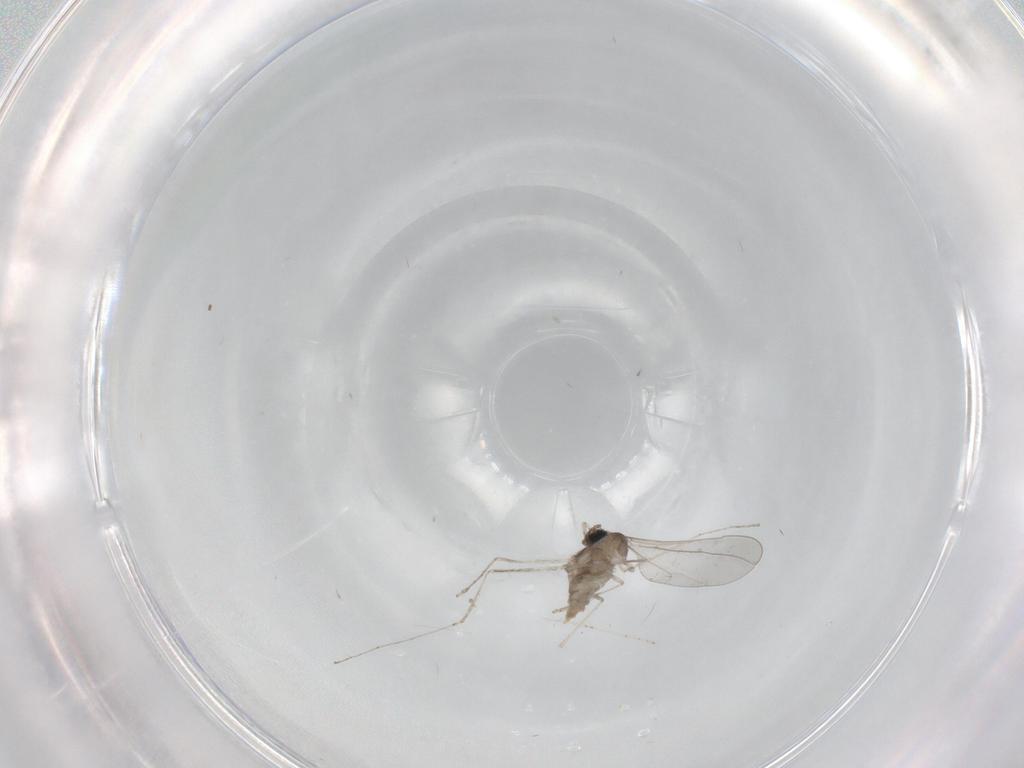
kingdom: Animalia
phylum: Arthropoda
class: Insecta
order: Diptera
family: Cecidomyiidae
